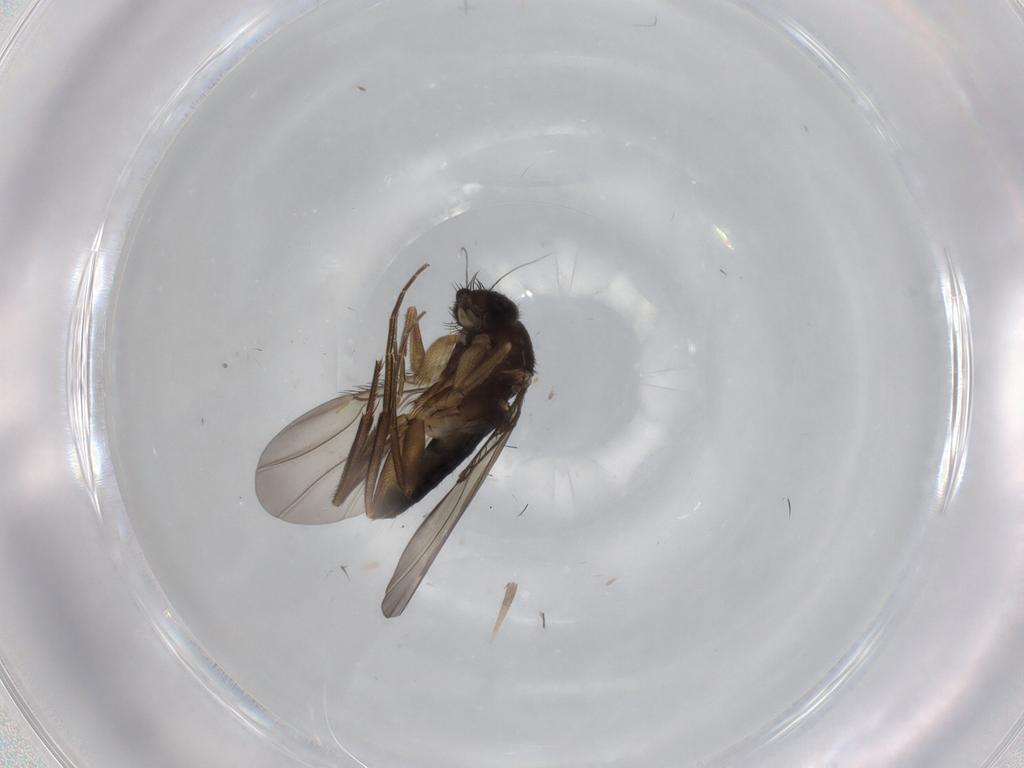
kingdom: Animalia
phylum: Arthropoda
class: Insecta
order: Diptera
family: Phoridae
